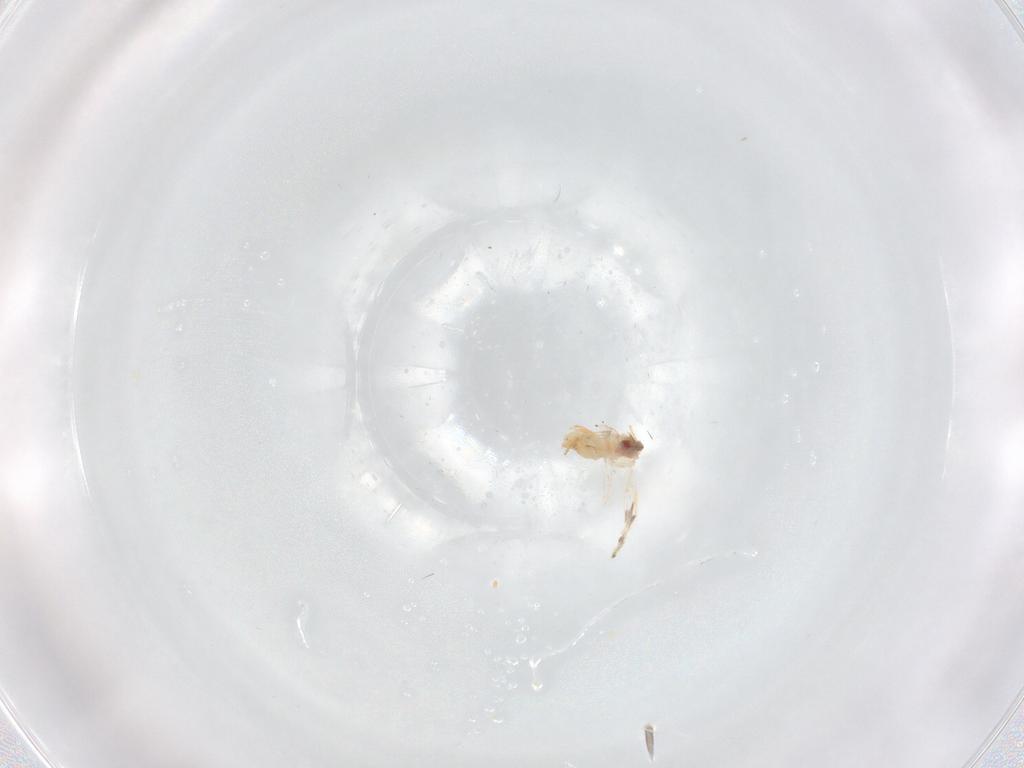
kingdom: Animalia
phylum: Arthropoda
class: Insecta
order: Hemiptera
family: Aleyrodidae
